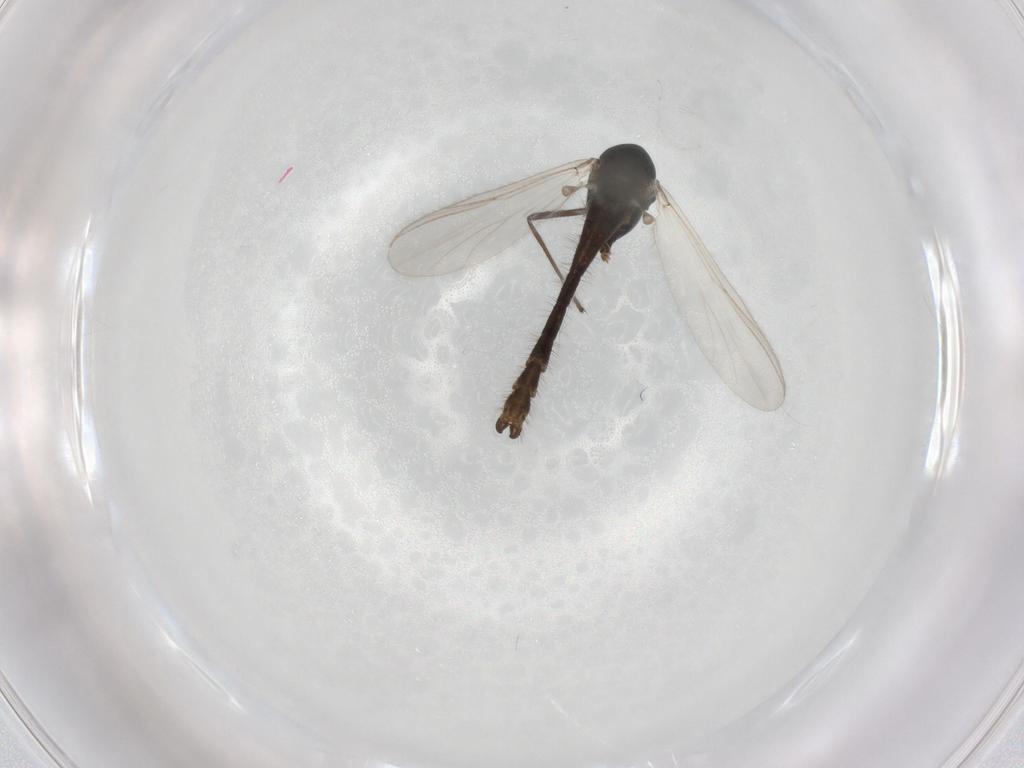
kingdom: Animalia
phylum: Arthropoda
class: Insecta
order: Diptera
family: Chironomidae
